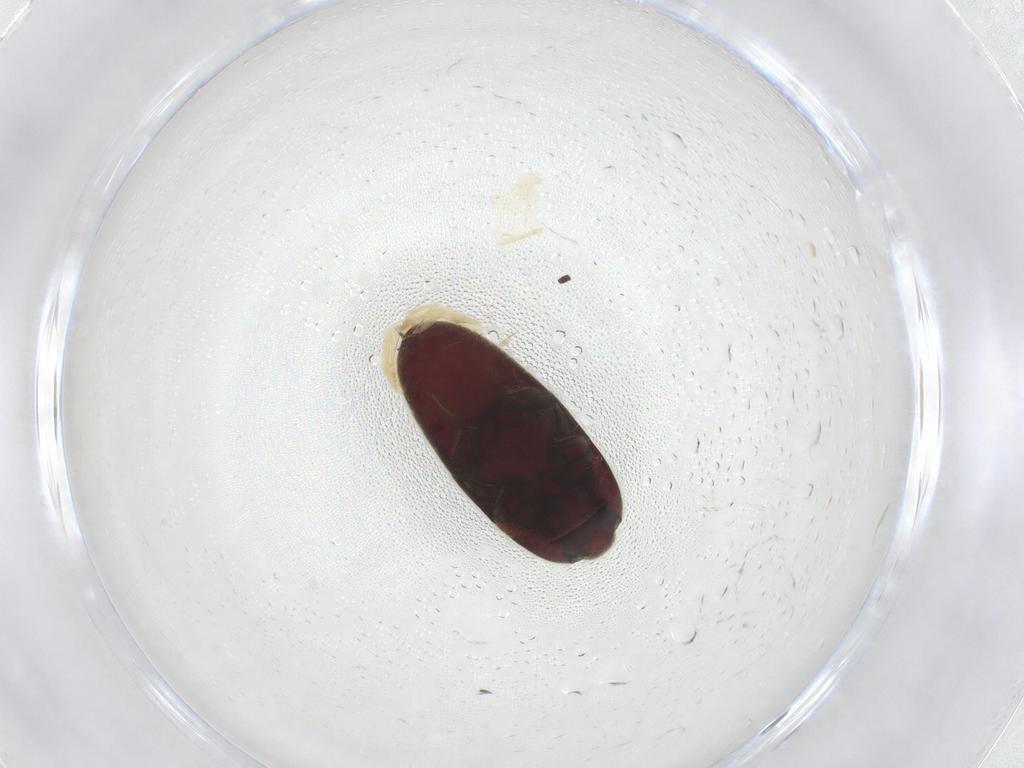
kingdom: Animalia
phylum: Arthropoda
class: Insecta
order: Coleoptera
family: Throscidae
